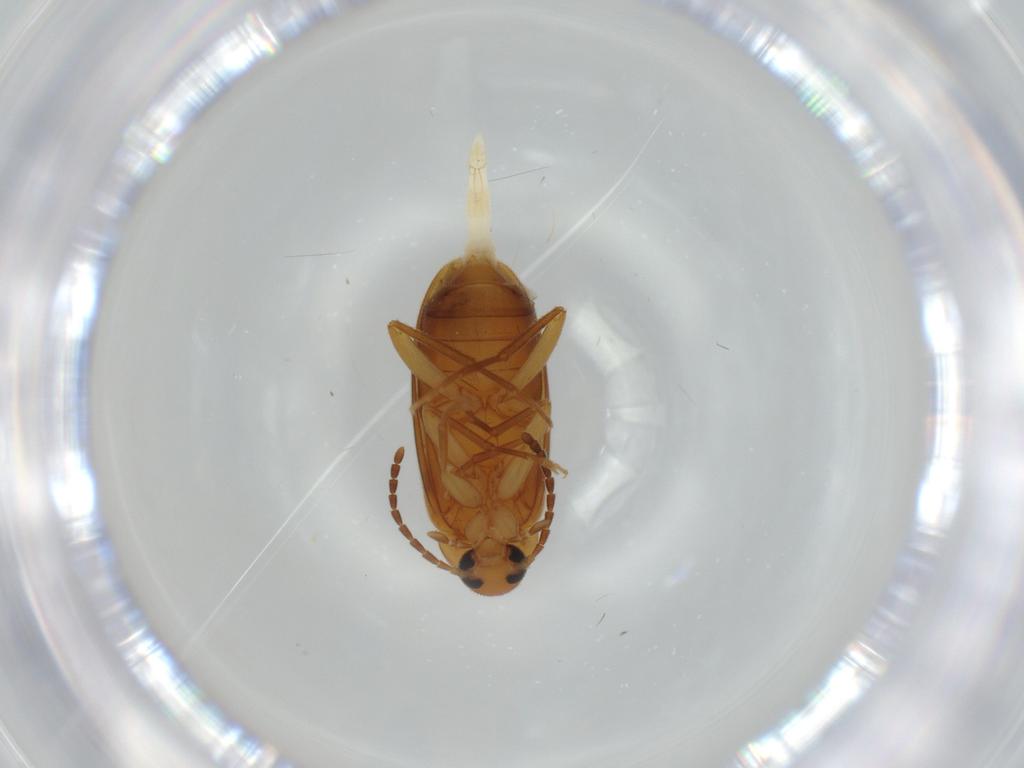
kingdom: Animalia
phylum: Arthropoda
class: Insecta
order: Coleoptera
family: Scraptiidae
